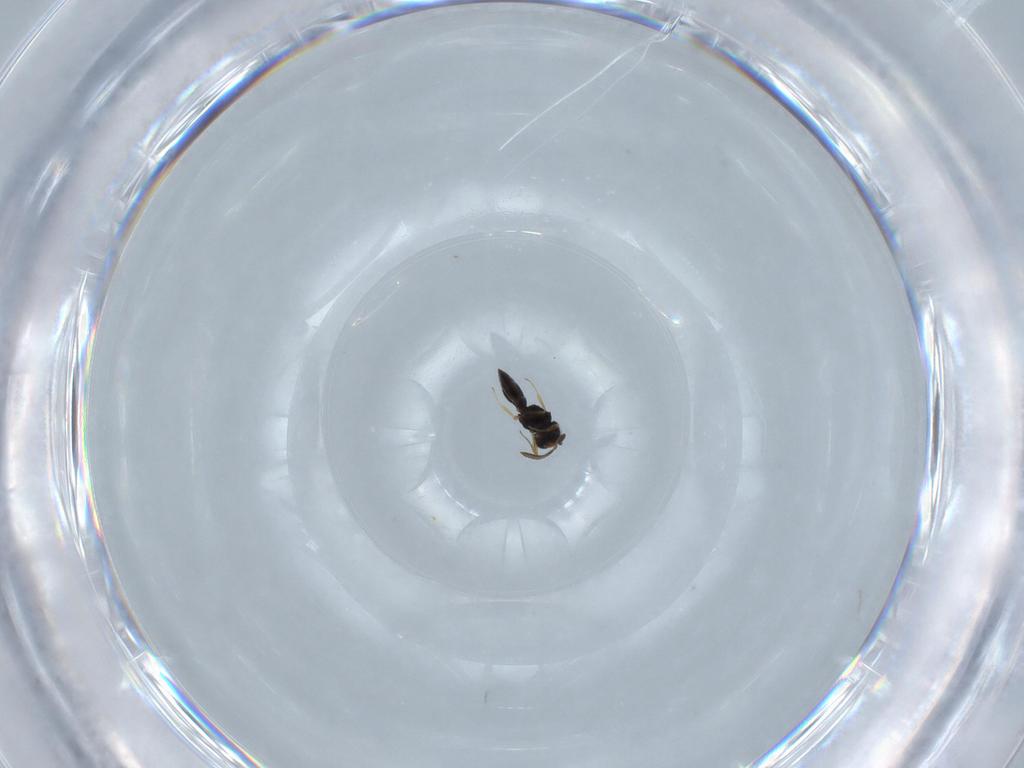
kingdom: Animalia
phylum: Arthropoda
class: Insecta
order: Hymenoptera
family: Scelionidae
